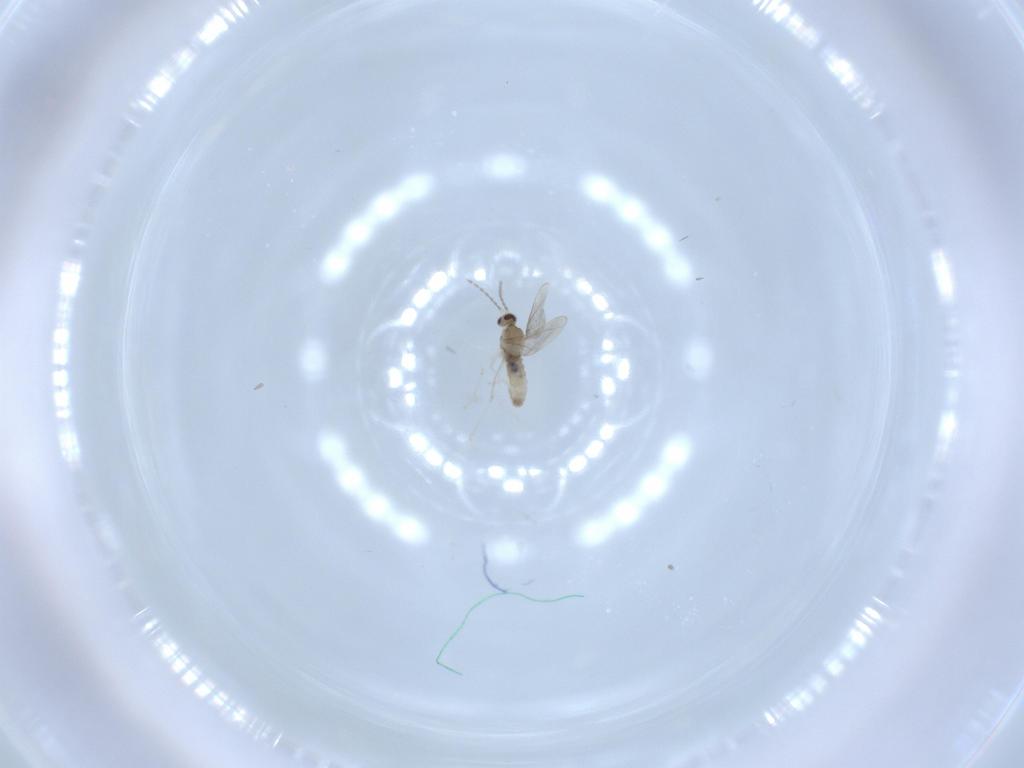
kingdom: Animalia
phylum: Arthropoda
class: Insecta
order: Diptera
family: Cecidomyiidae
